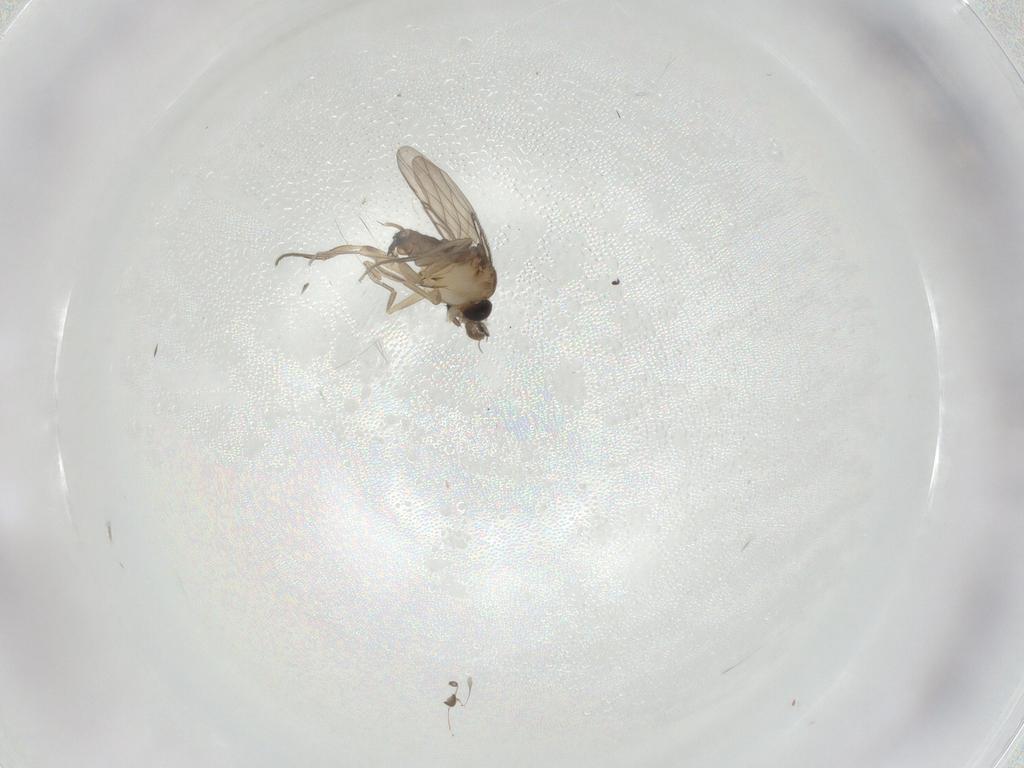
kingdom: Animalia
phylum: Arthropoda
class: Insecta
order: Diptera
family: Phoridae
